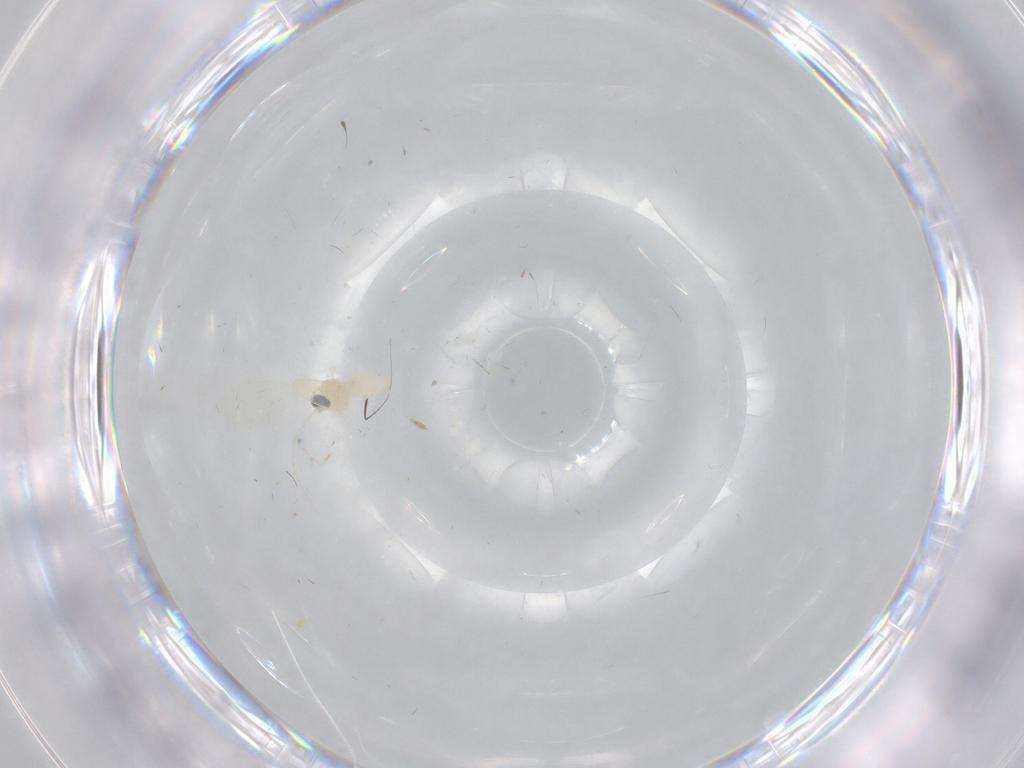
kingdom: Animalia
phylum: Arthropoda
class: Insecta
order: Diptera
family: Cecidomyiidae
